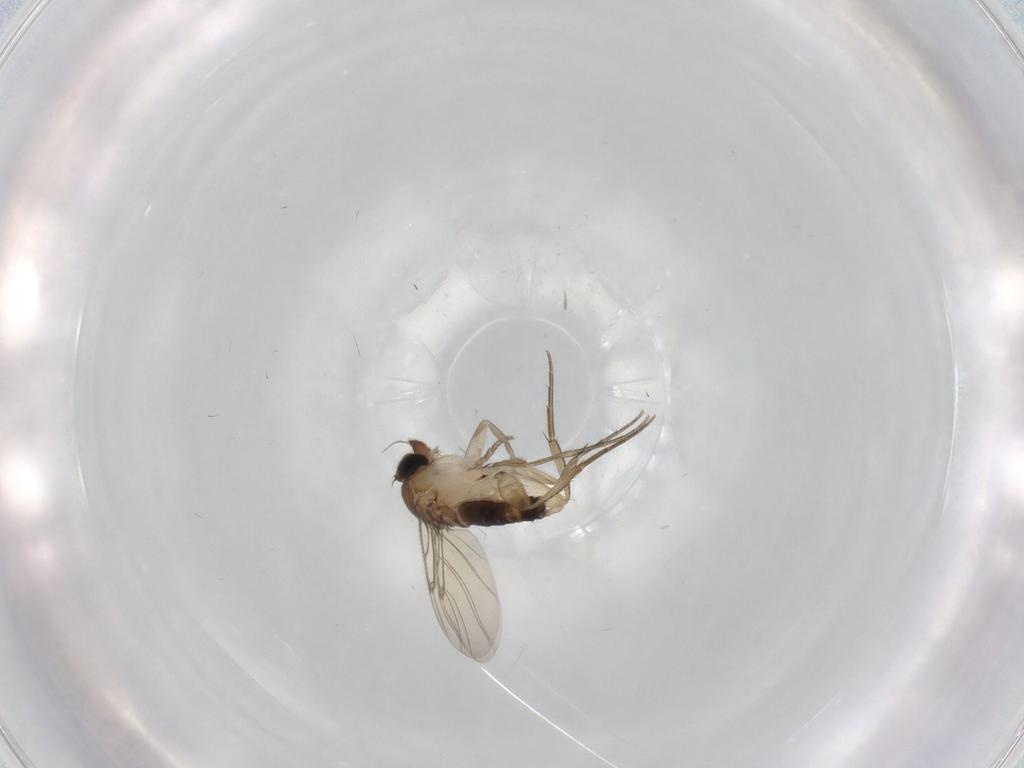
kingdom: Animalia
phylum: Arthropoda
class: Insecta
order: Diptera
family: Phoridae
